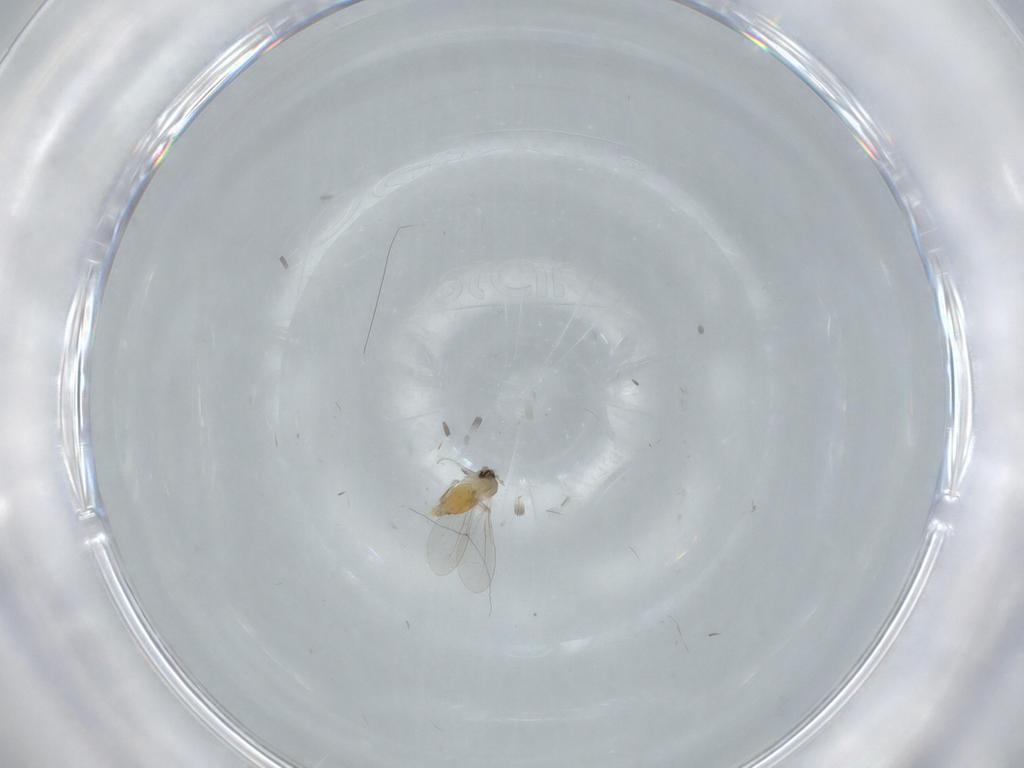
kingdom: Animalia
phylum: Arthropoda
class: Insecta
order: Diptera
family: Cecidomyiidae
